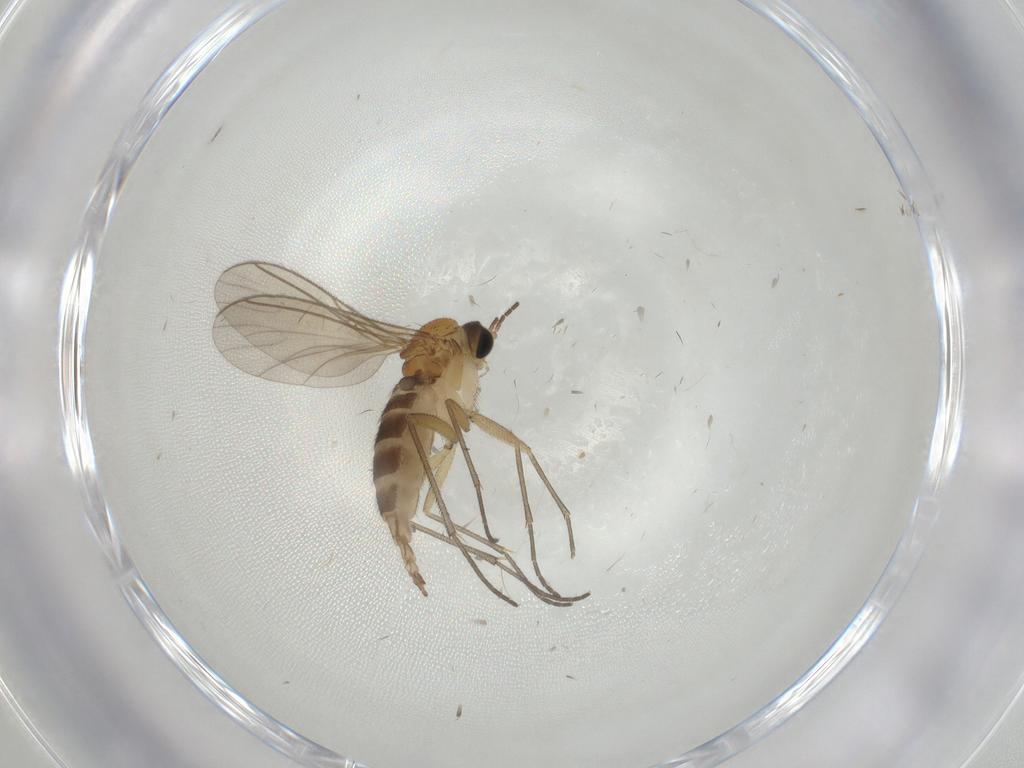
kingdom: Animalia
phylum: Arthropoda
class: Insecta
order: Diptera
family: Sciaridae
